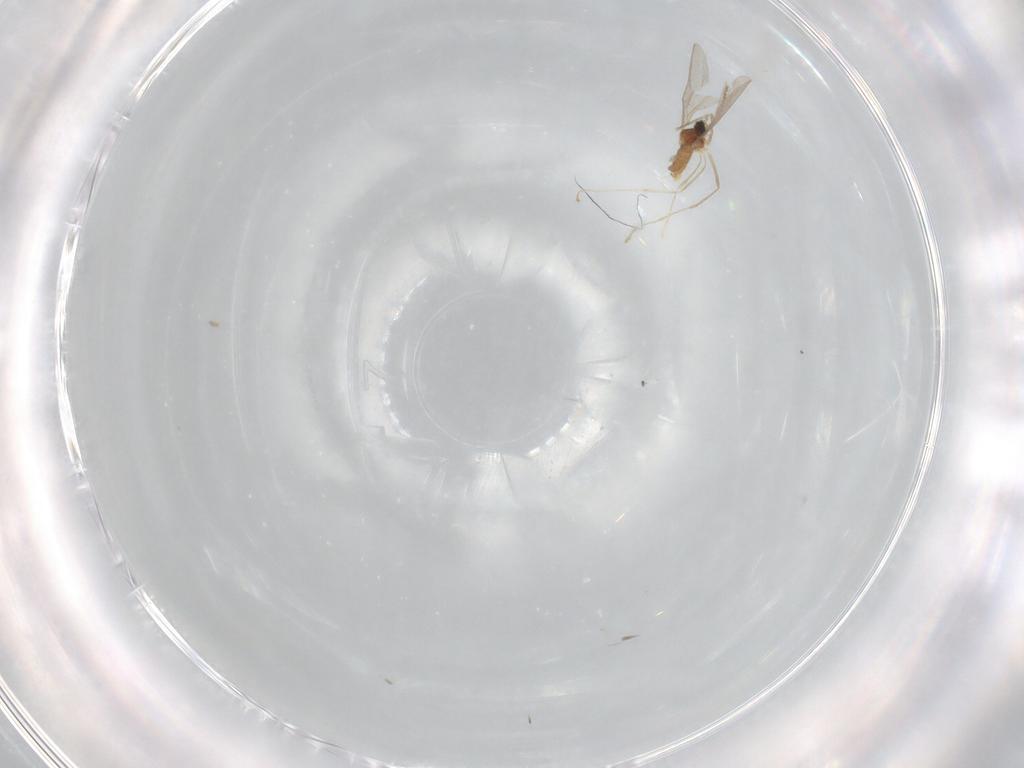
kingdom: Animalia
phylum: Arthropoda
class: Insecta
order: Diptera
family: Cecidomyiidae
